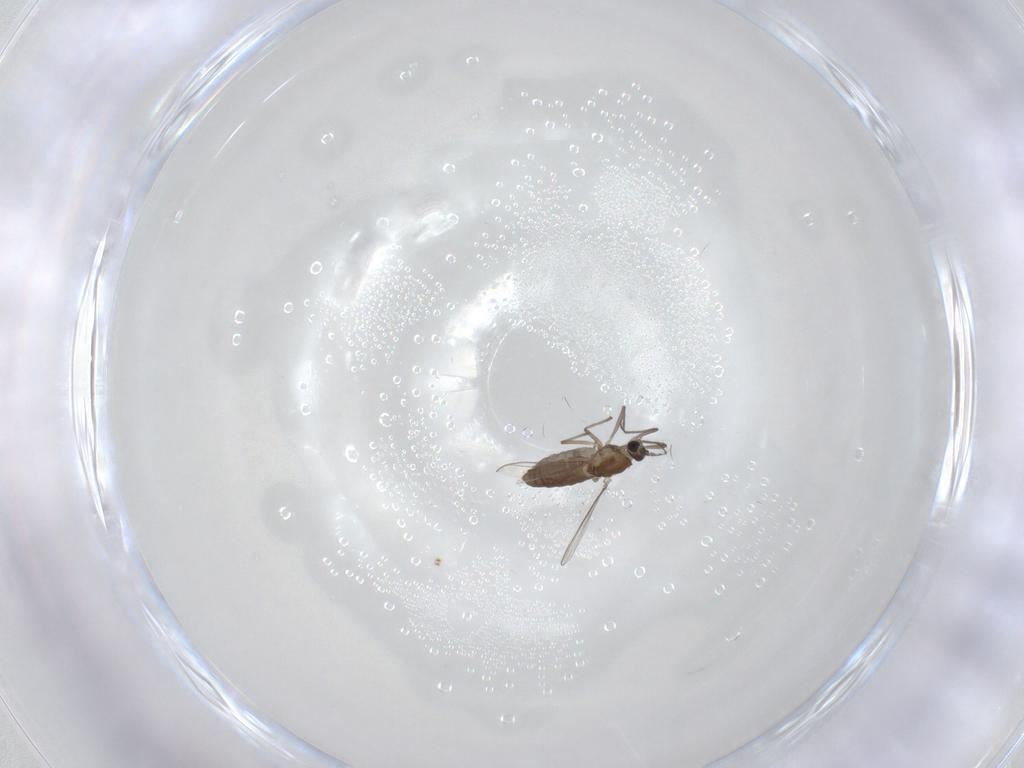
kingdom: Animalia
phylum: Arthropoda
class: Insecta
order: Diptera
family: Chironomidae
